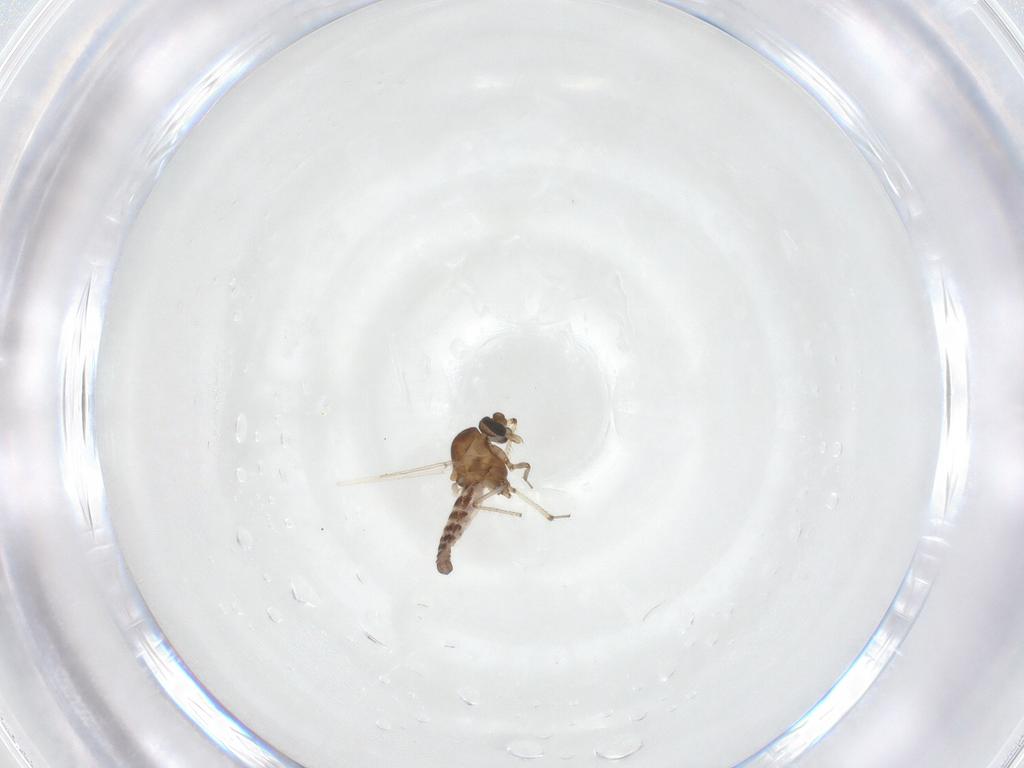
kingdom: Animalia
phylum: Arthropoda
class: Insecta
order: Diptera
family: Ceratopogonidae
